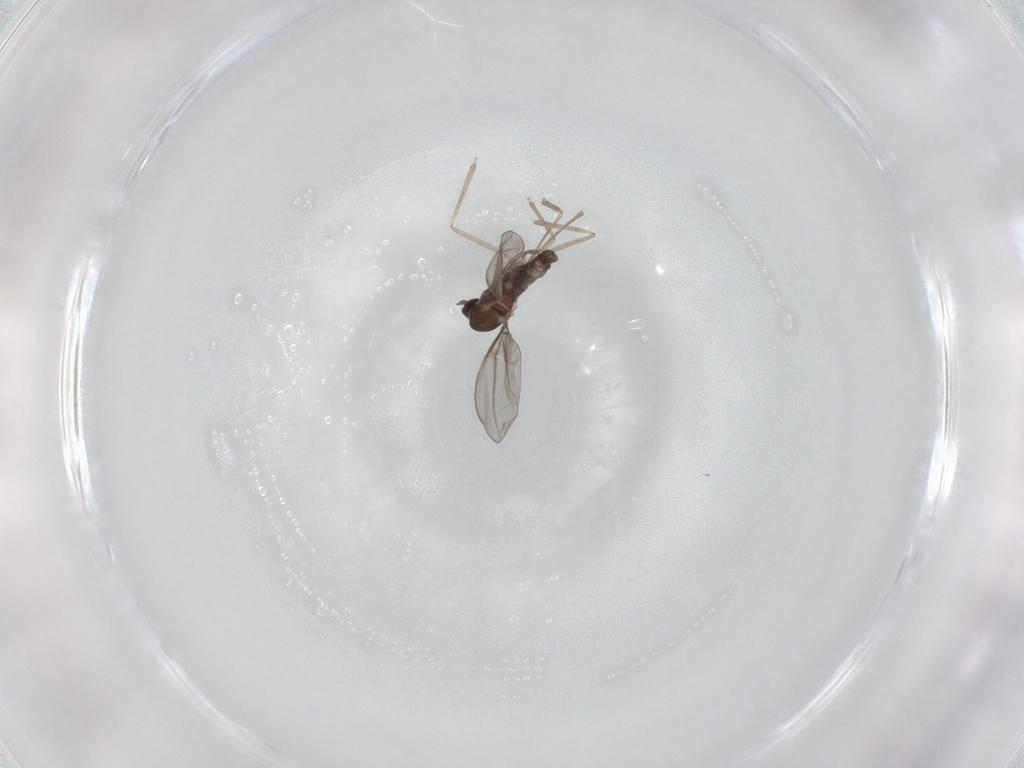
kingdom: Animalia
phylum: Arthropoda
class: Insecta
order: Diptera
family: Cecidomyiidae
